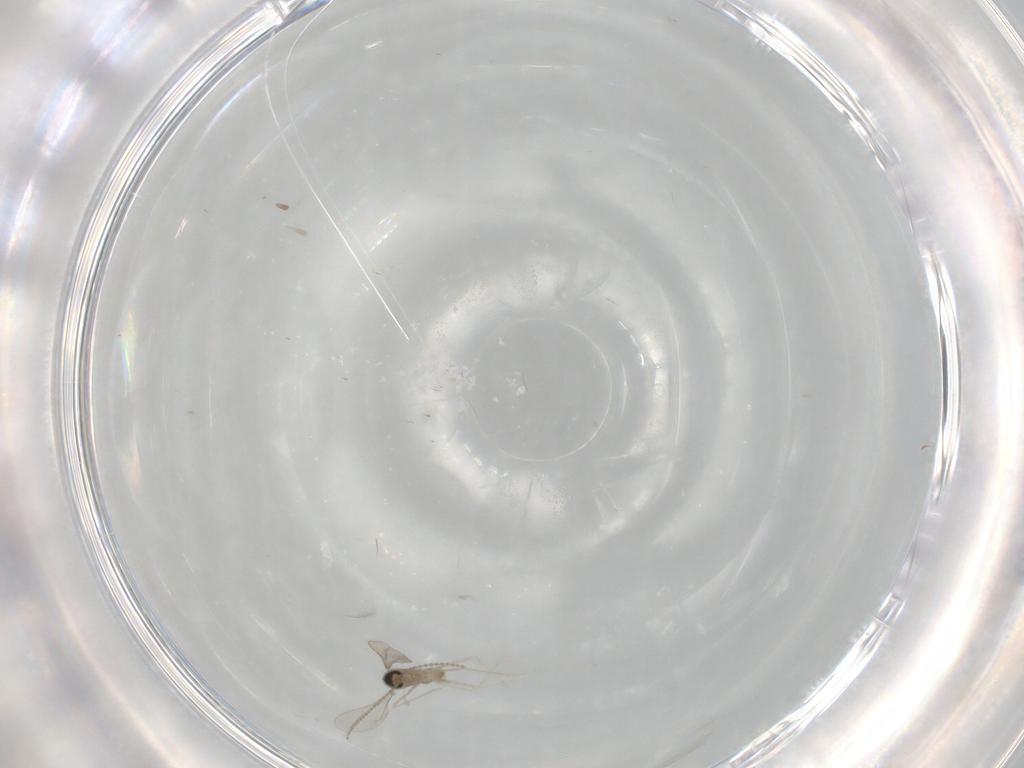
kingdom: Animalia
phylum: Arthropoda
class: Insecta
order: Diptera
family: Cecidomyiidae
